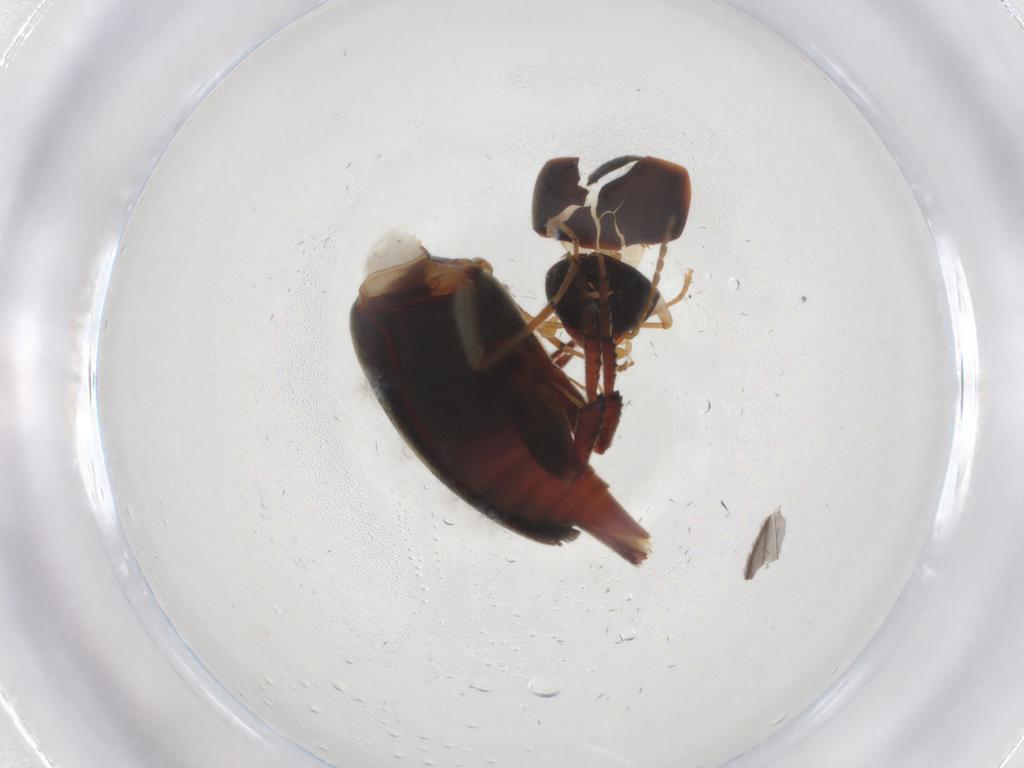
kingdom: Animalia
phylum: Arthropoda
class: Insecta
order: Coleoptera
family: Mordellidae
